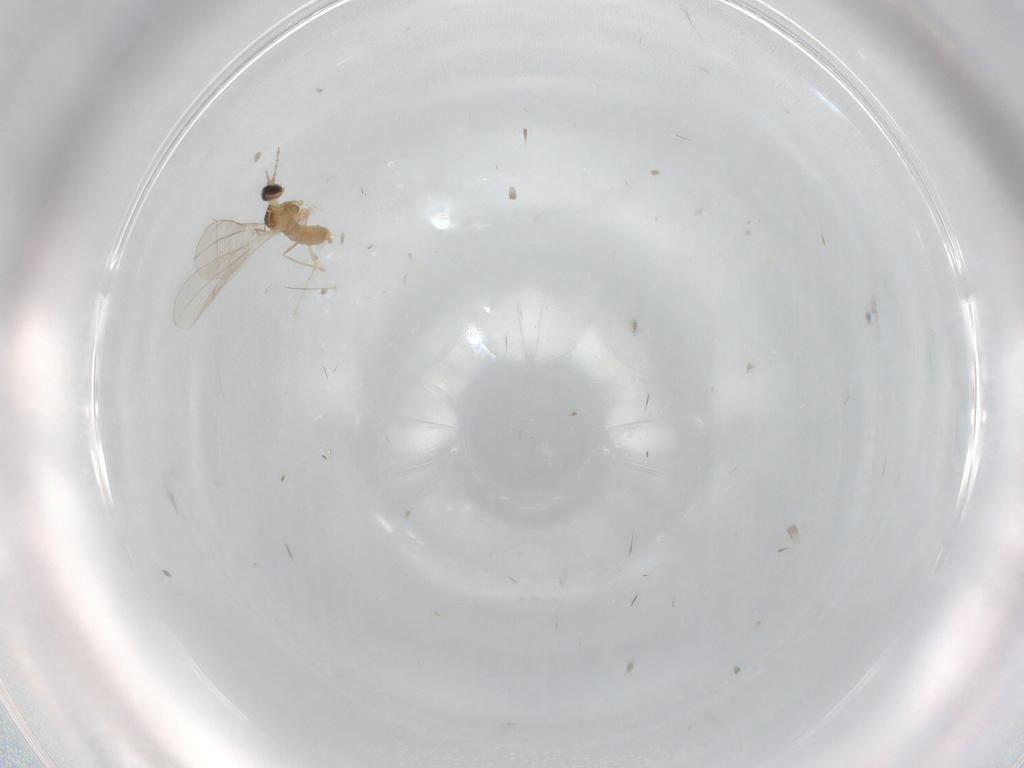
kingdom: Animalia
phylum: Arthropoda
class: Insecta
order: Diptera
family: Cecidomyiidae
